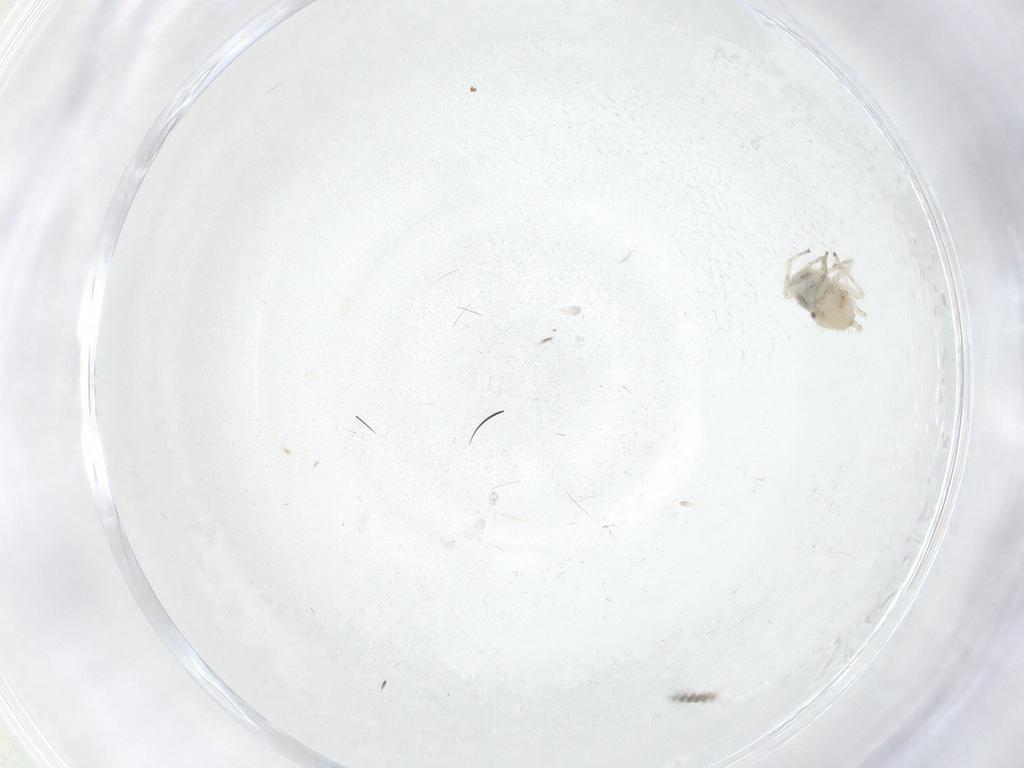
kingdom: Animalia
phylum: Arthropoda
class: Insecta
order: Psocodea
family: Elipsocidae
